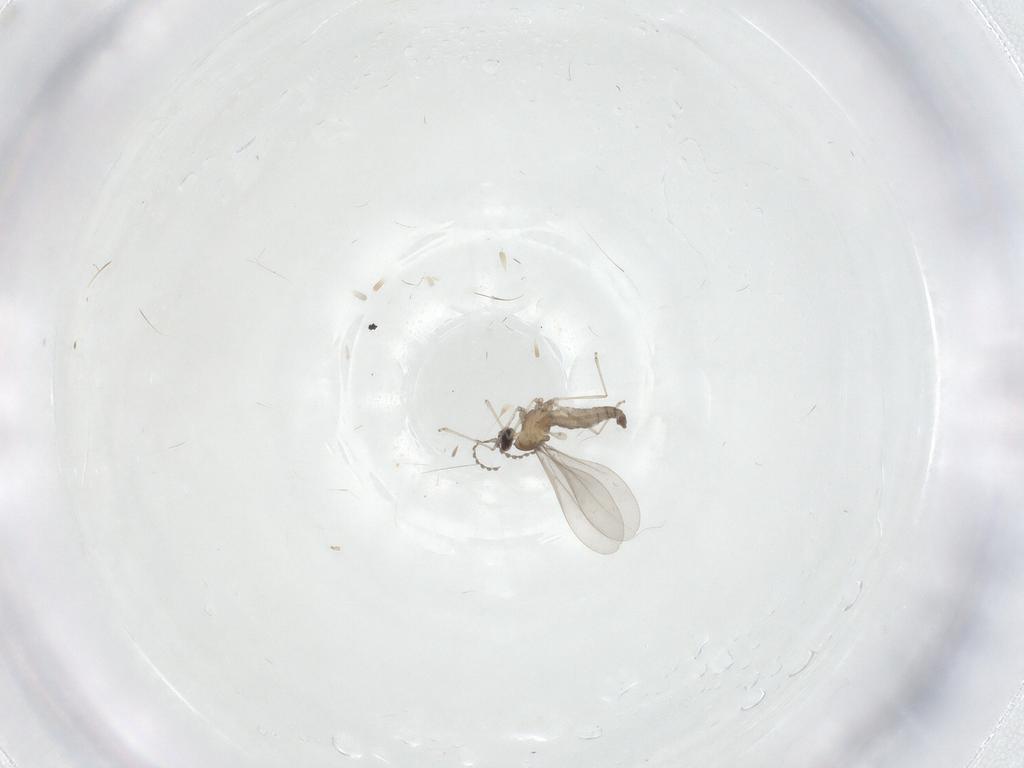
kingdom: Animalia
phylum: Arthropoda
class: Insecta
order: Diptera
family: Cecidomyiidae
